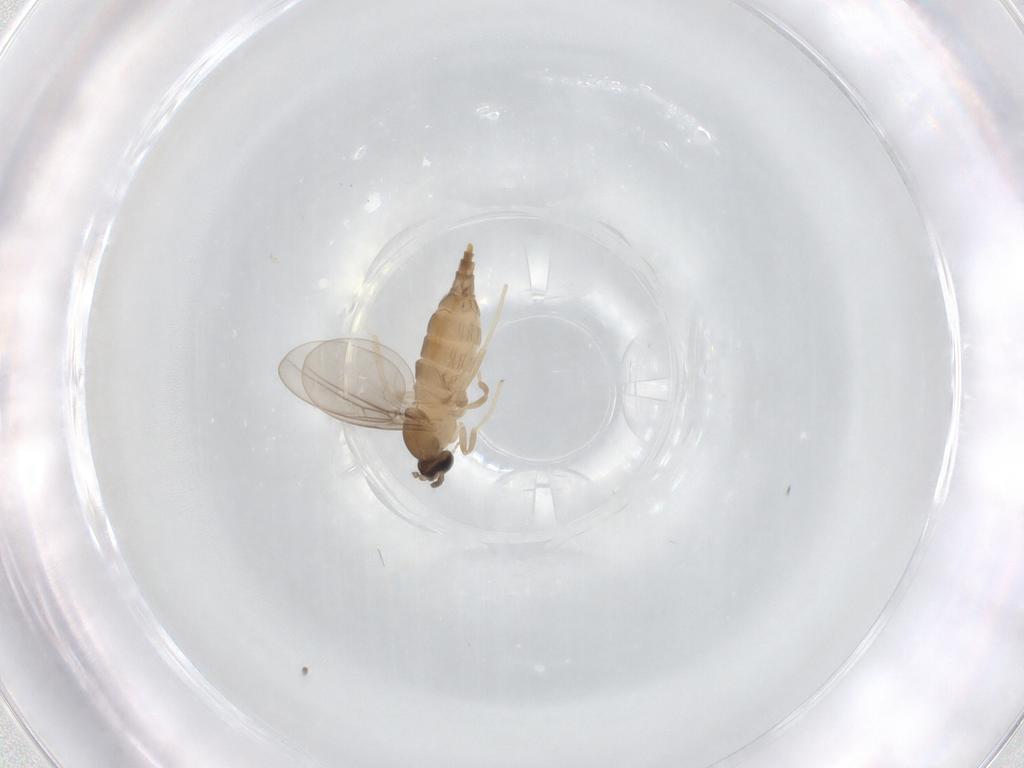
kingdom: Animalia
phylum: Arthropoda
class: Insecta
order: Diptera
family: Cecidomyiidae
